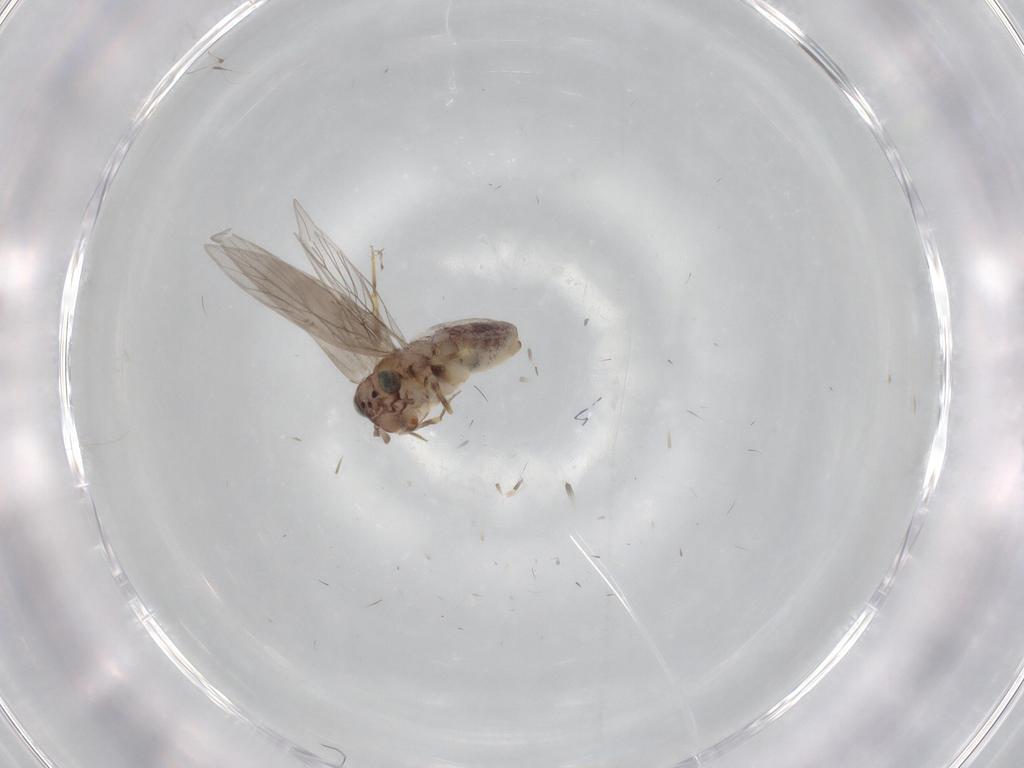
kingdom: Animalia
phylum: Arthropoda
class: Insecta
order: Psocodea
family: Lepidopsocidae
